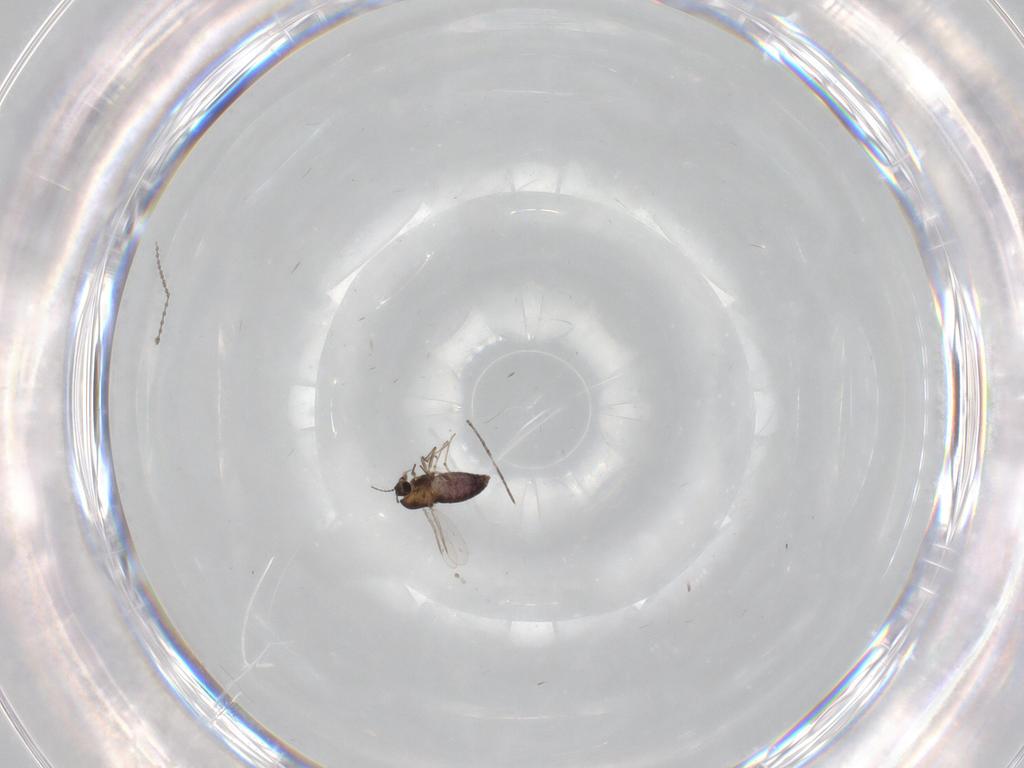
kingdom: Animalia
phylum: Arthropoda
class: Insecta
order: Diptera
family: Chironomidae
